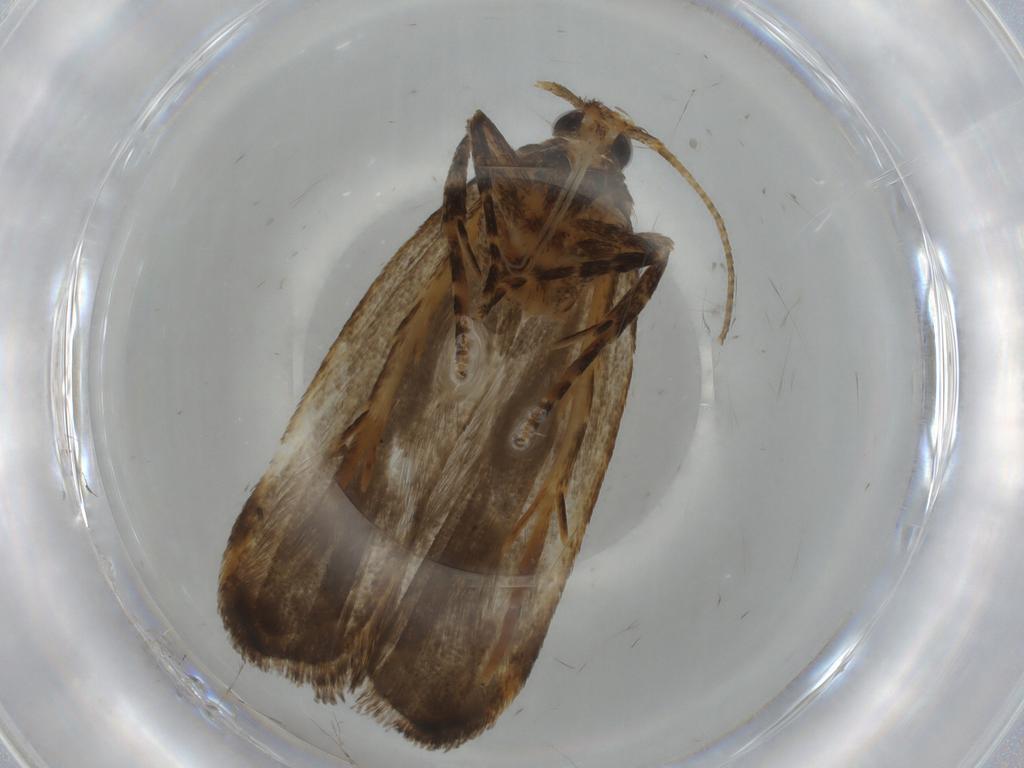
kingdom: Animalia
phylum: Arthropoda
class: Insecta
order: Lepidoptera
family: Autostichidae
